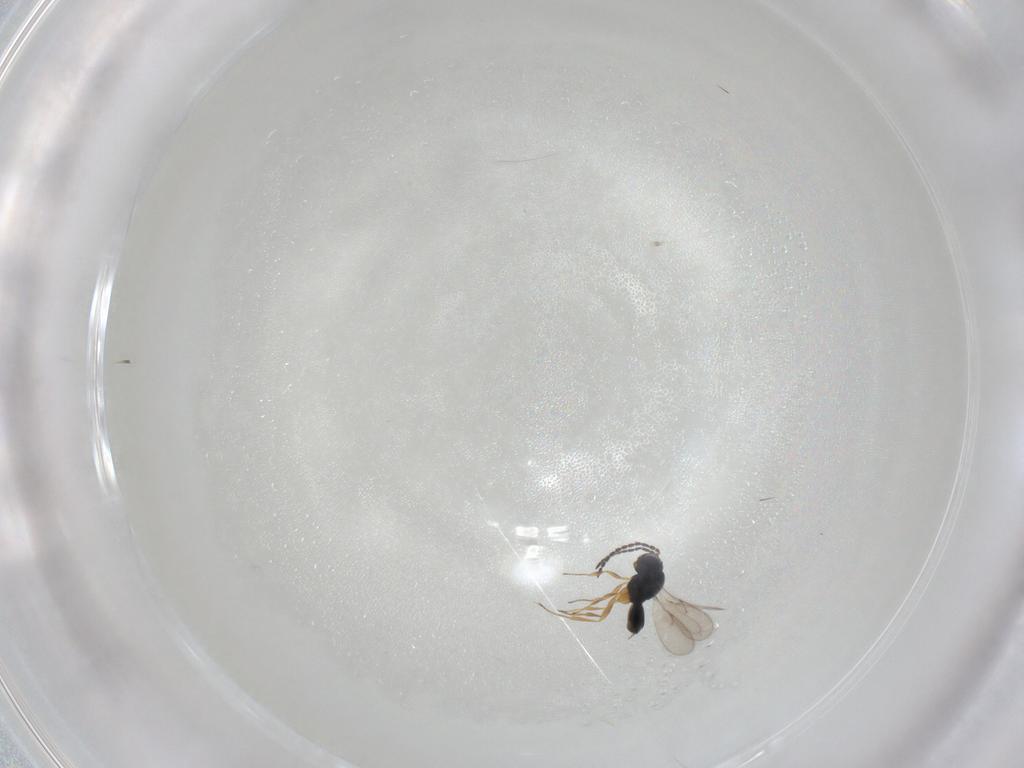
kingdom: Animalia
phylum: Arthropoda
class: Insecta
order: Hymenoptera
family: Scelionidae
